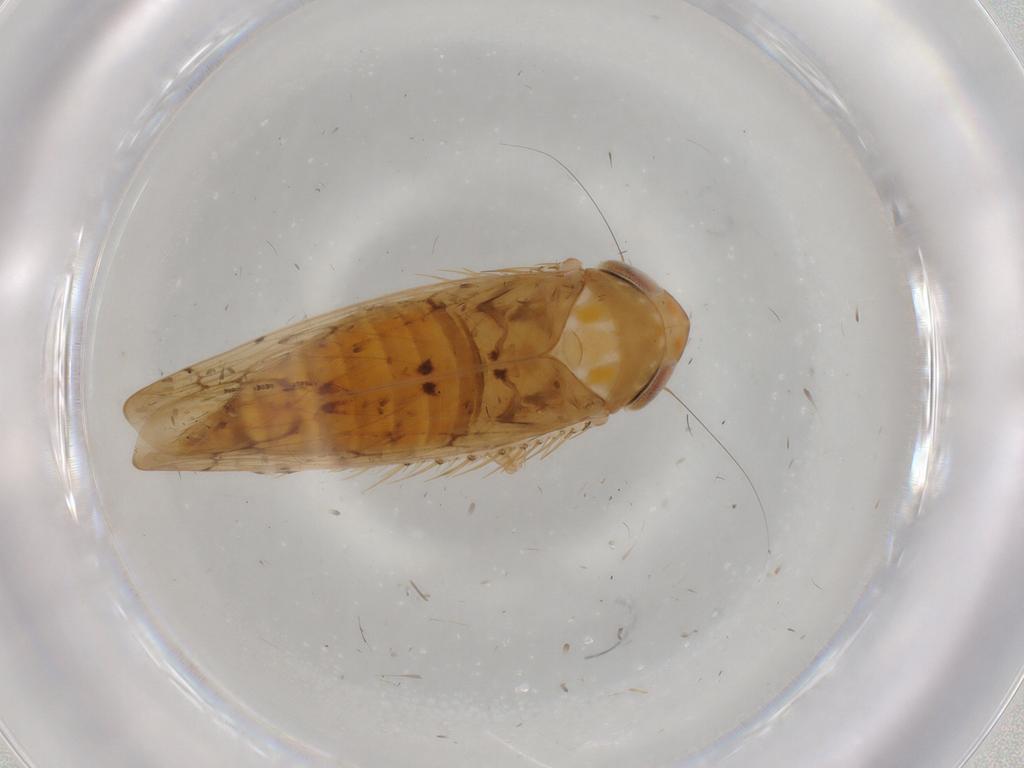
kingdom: Animalia
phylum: Arthropoda
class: Insecta
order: Hemiptera
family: Cicadellidae
